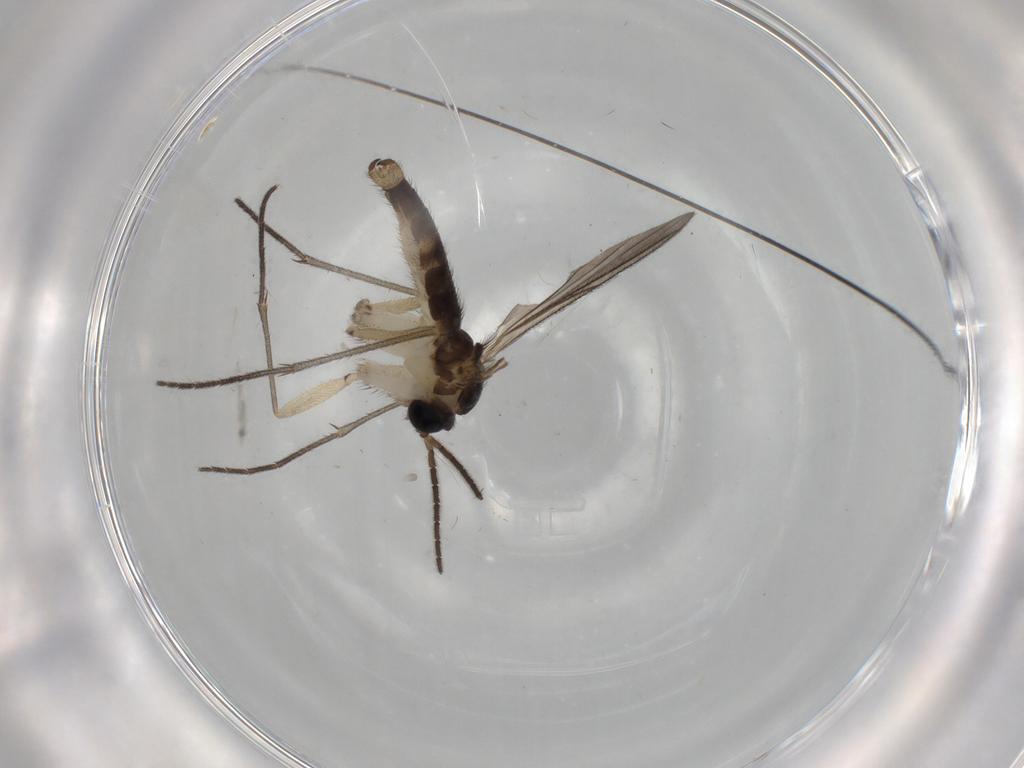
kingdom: Animalia
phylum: Arthropoda
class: Insecta
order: Diptera
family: Sciaridae
